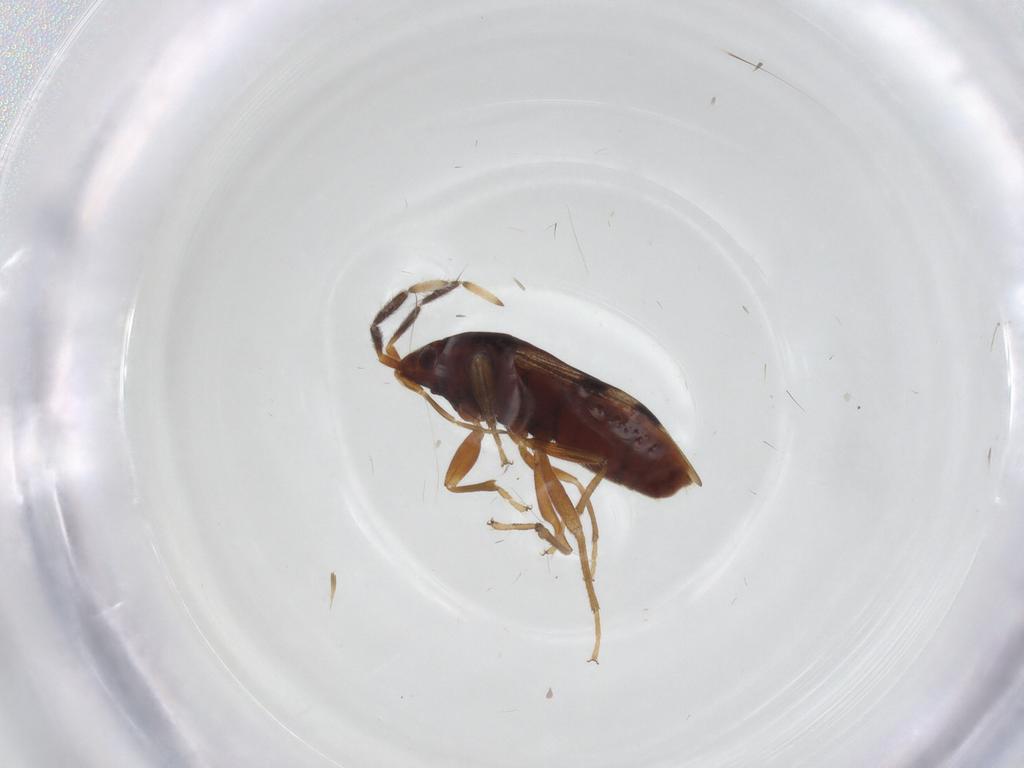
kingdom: Animalia
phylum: Arthropoda
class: Insecta
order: Hemiptera
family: Rhyparochromidae
